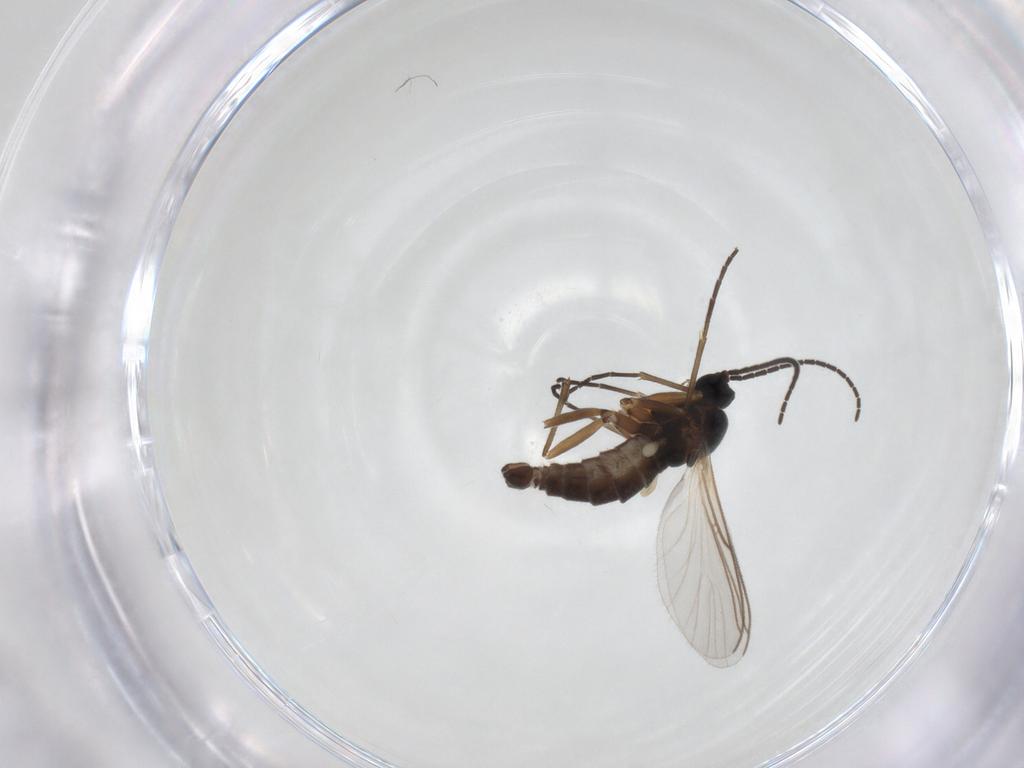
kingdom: Animalia
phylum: Arthropoda
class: Insecta
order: Diptera
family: Sciaridae
